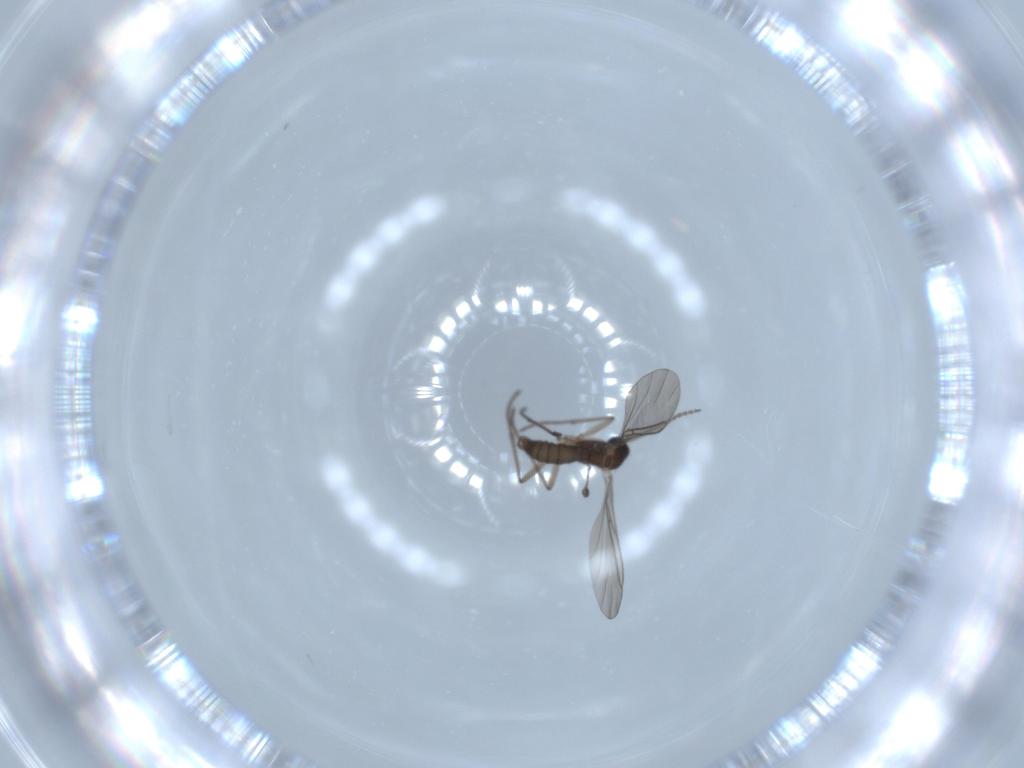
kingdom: Animalia
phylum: Arthropoda
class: Insecta
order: Diptera
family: Sciaridae
